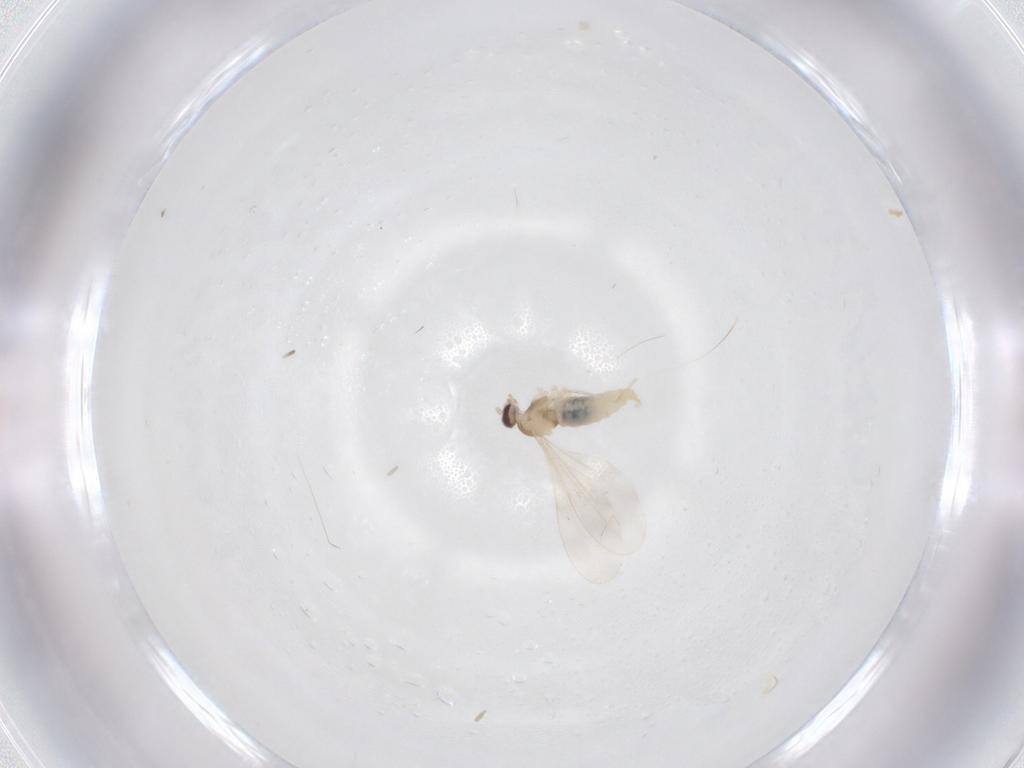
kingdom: Animalia
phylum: Arthropoda
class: Insecta
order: Diptera
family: Cecidomyiidae
